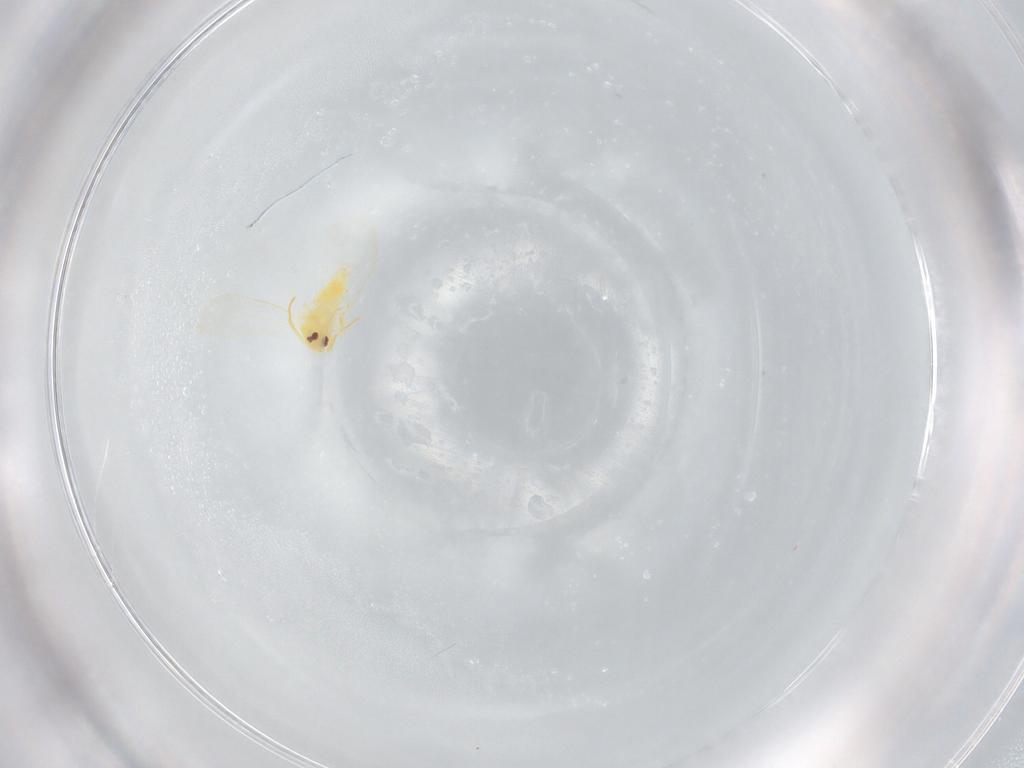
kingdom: Animalia
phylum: Arthropoda
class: Insecta
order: Hemiptera
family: Aleyrodidae
